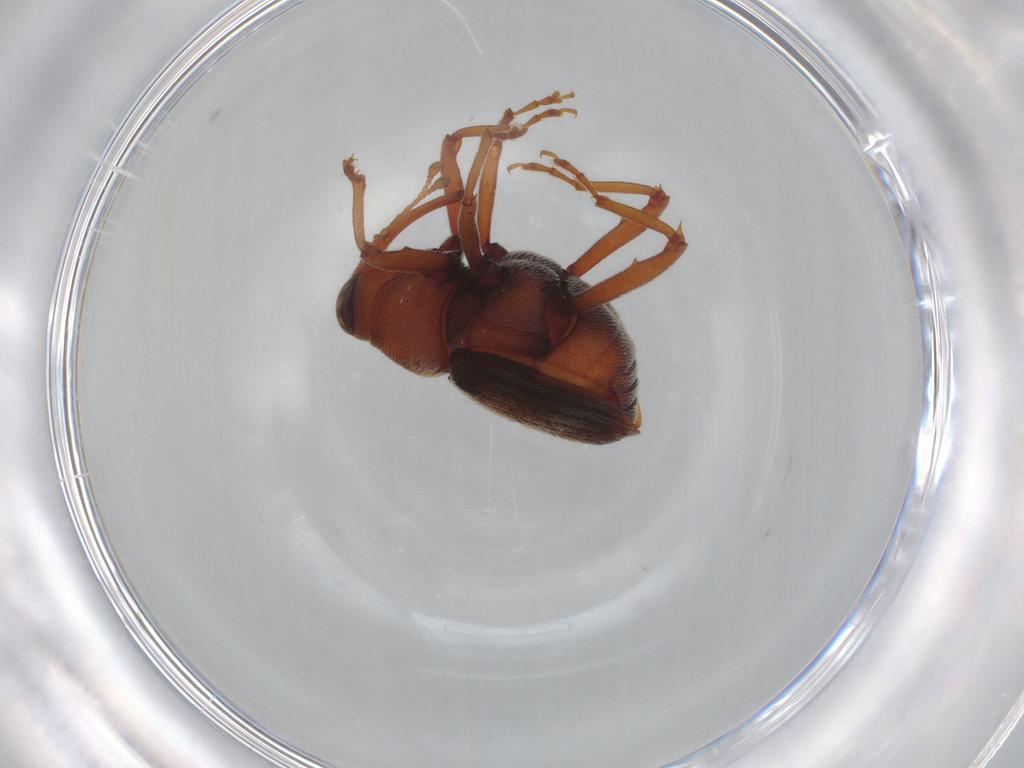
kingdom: Animalia
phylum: Arthropoda
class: Insecta
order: Coleoptera
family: Curculionidae
